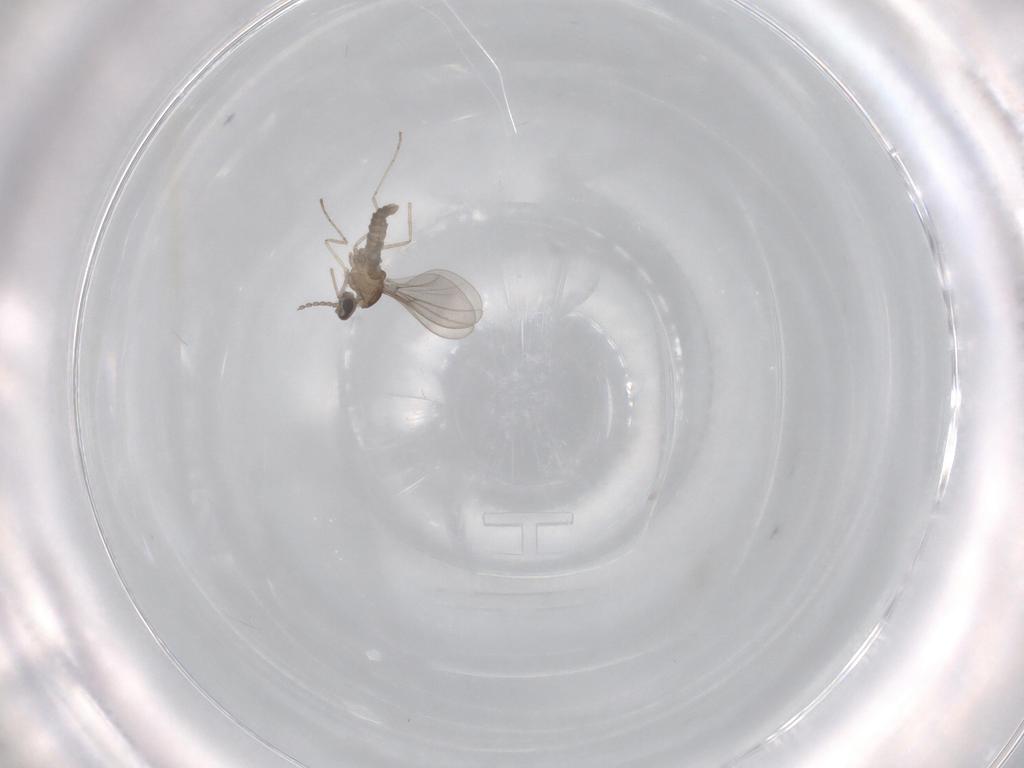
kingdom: Animalia
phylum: Arthropoda
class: Insecta
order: Diptera
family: Cecidomyiidae
